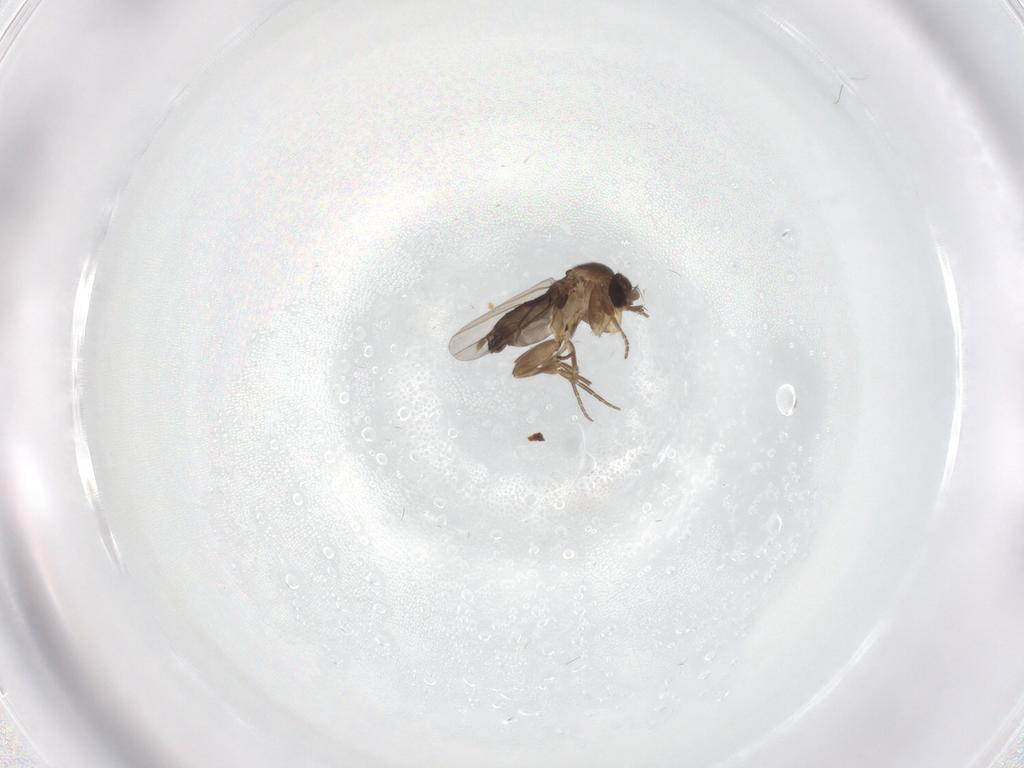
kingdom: Animalia
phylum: Arthropoda
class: Insecta
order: Diptera
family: Phoridae
